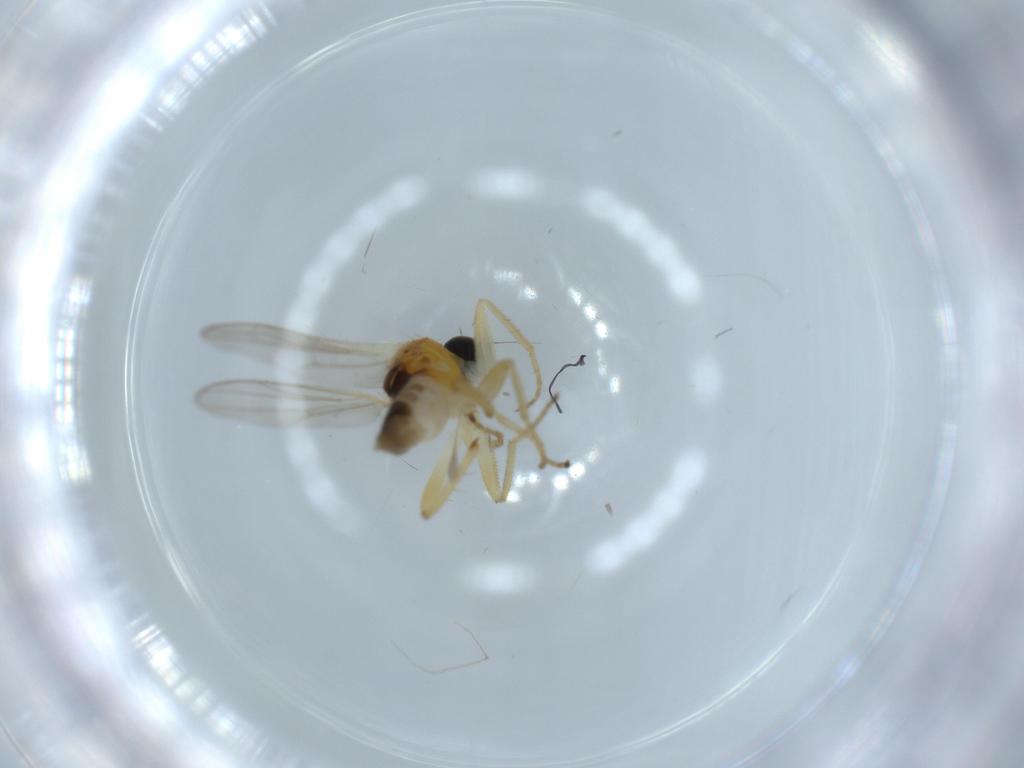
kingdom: Animalia
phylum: Arthropoda
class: Insecta
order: Diptera
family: Hybotidae
